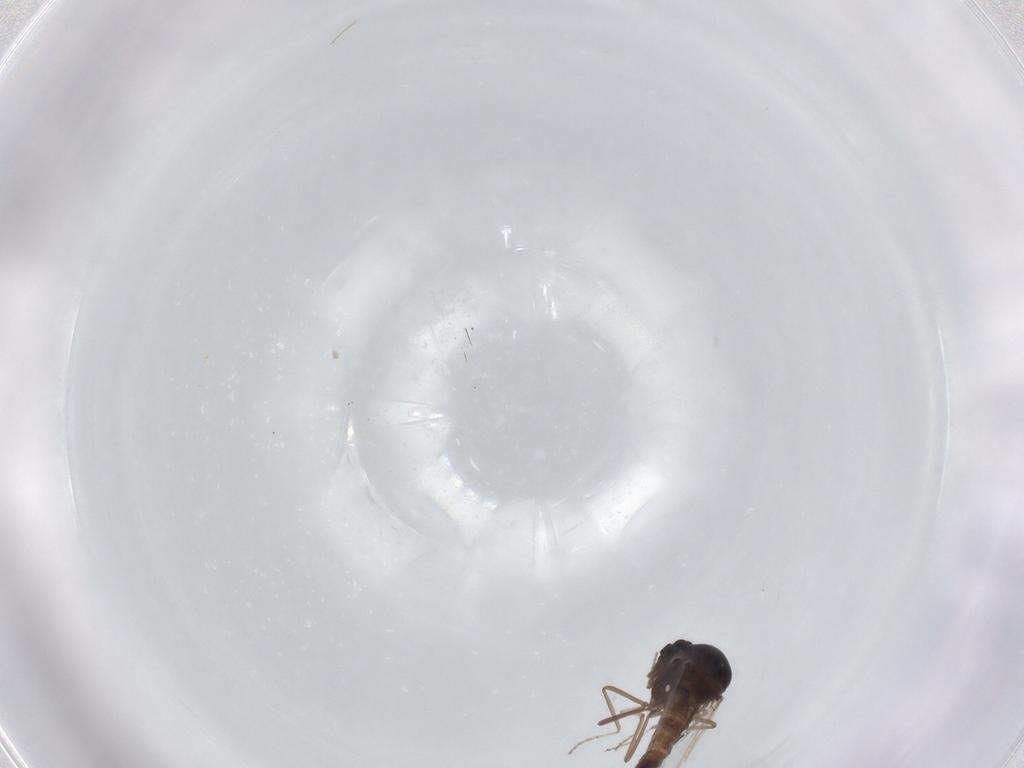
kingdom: Animalia
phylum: Arthropoda
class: Insecta
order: Diptera
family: Ceratopogonidae
